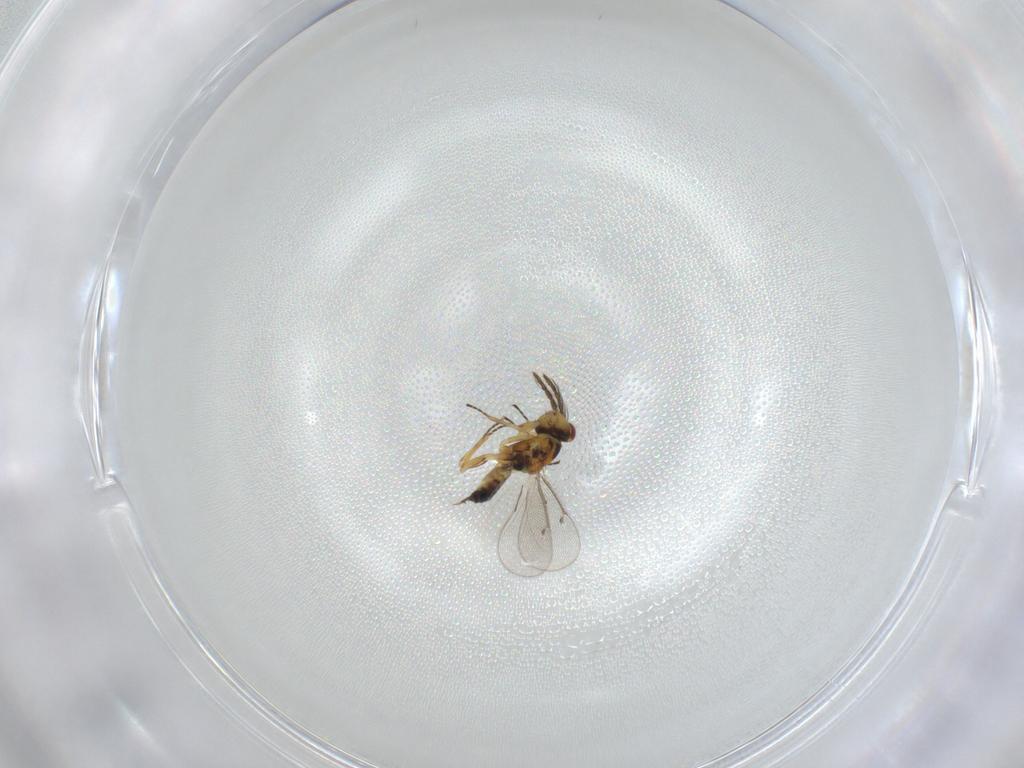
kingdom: Animalia
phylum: Arthropoda
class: Insecta
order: Hymenoptera
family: Eulophidae
